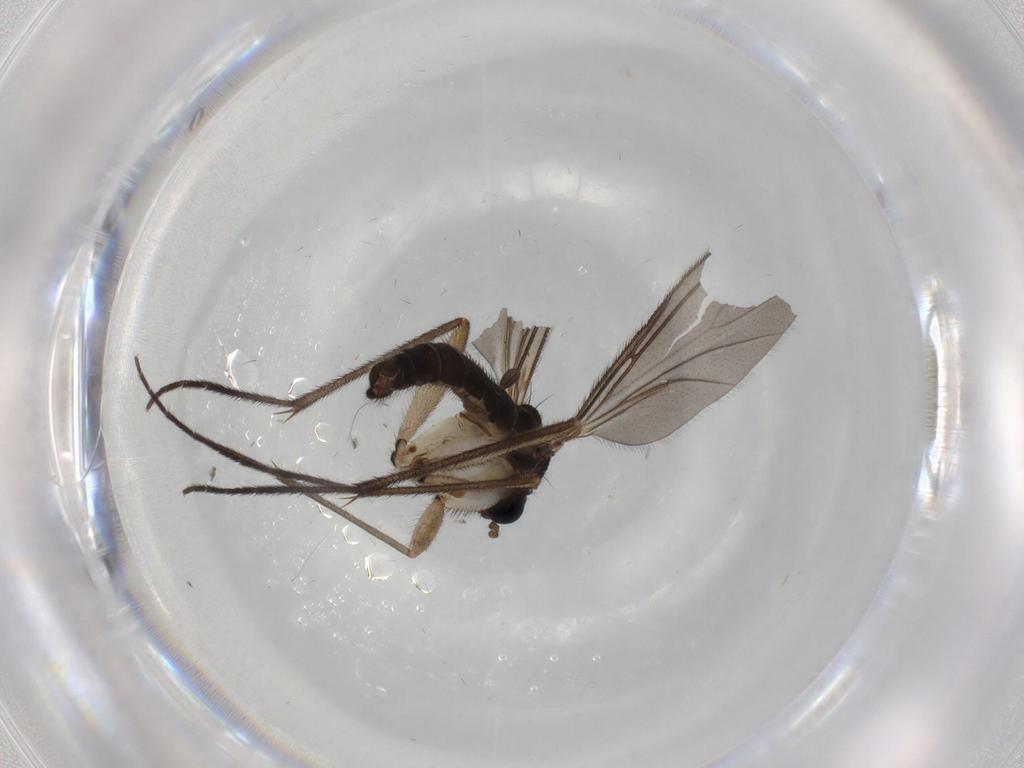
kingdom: Animalia
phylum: Arthropoda
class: Insecta
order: Diptera
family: Sciaridae
